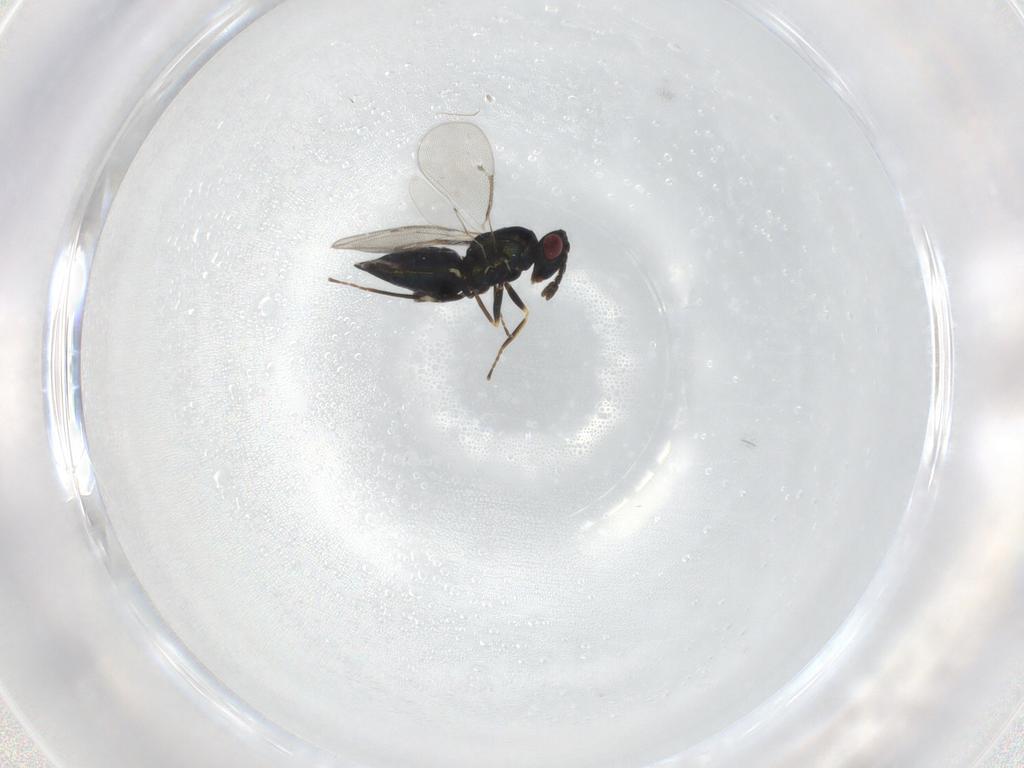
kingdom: Animalia
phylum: Arthropoda
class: Insecta
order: Hymenoptera
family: Eulophidae
